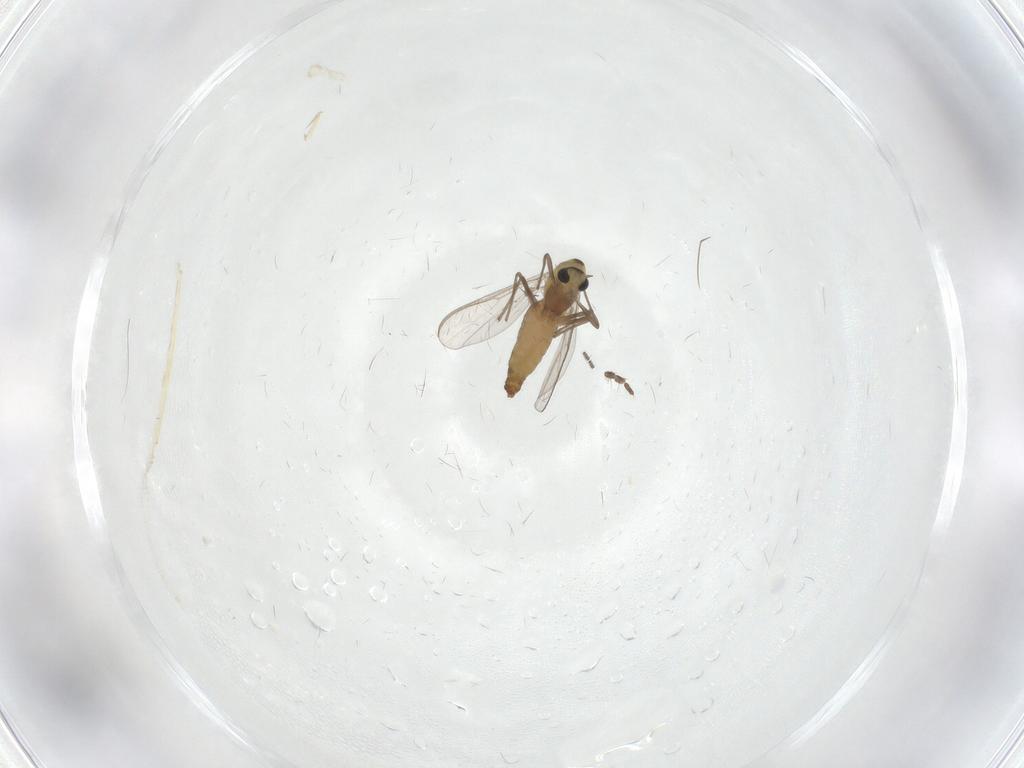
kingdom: Animalia
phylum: Arthropoda
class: Insecta
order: Diptera
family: Chironomidae
